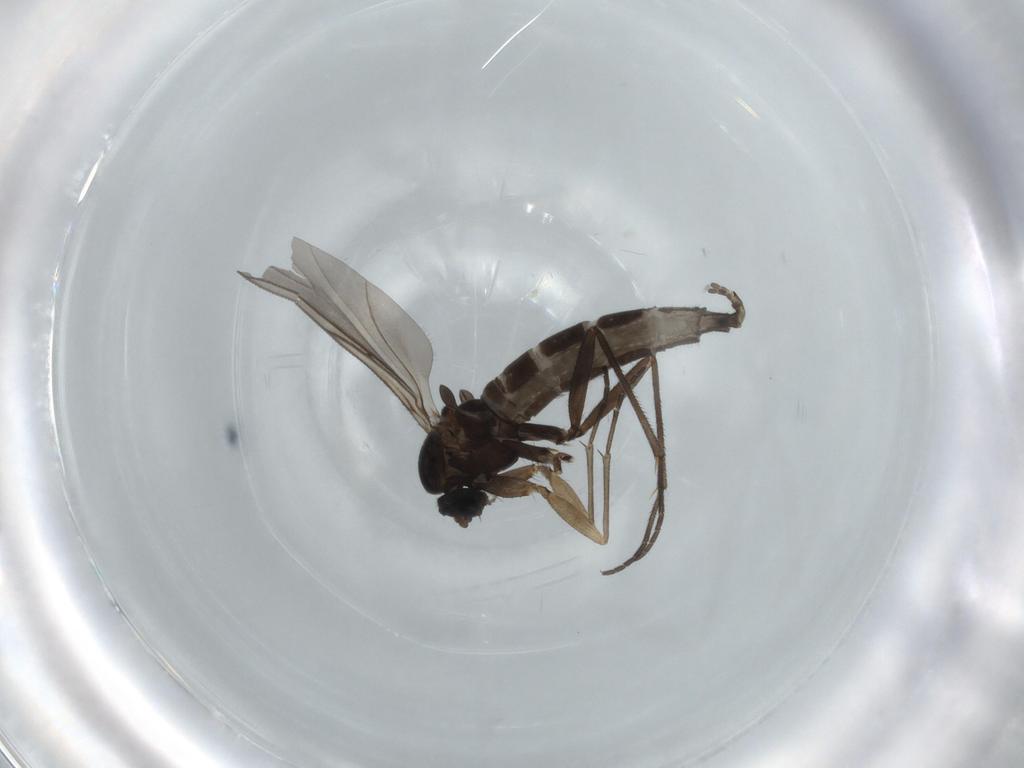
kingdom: Animalia
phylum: Arthropoda
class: Insecta
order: Diptera
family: Sciaridae
